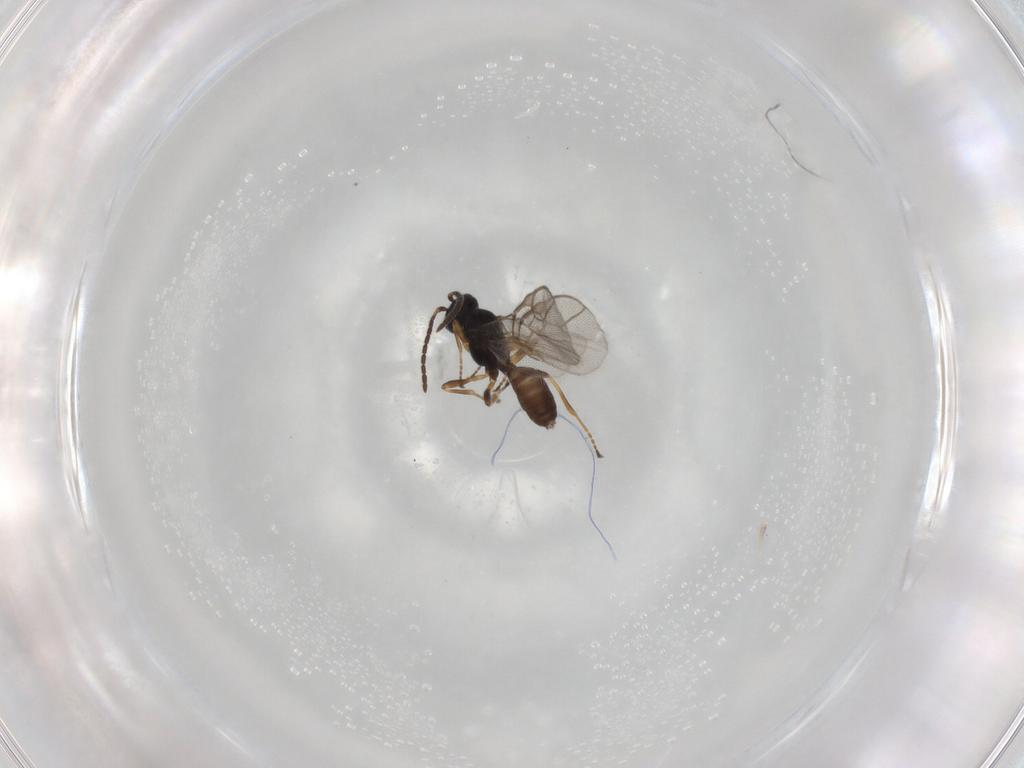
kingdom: Animalia
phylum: Arthropoda
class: Insecta
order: Hymenoptera
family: Braconidae
